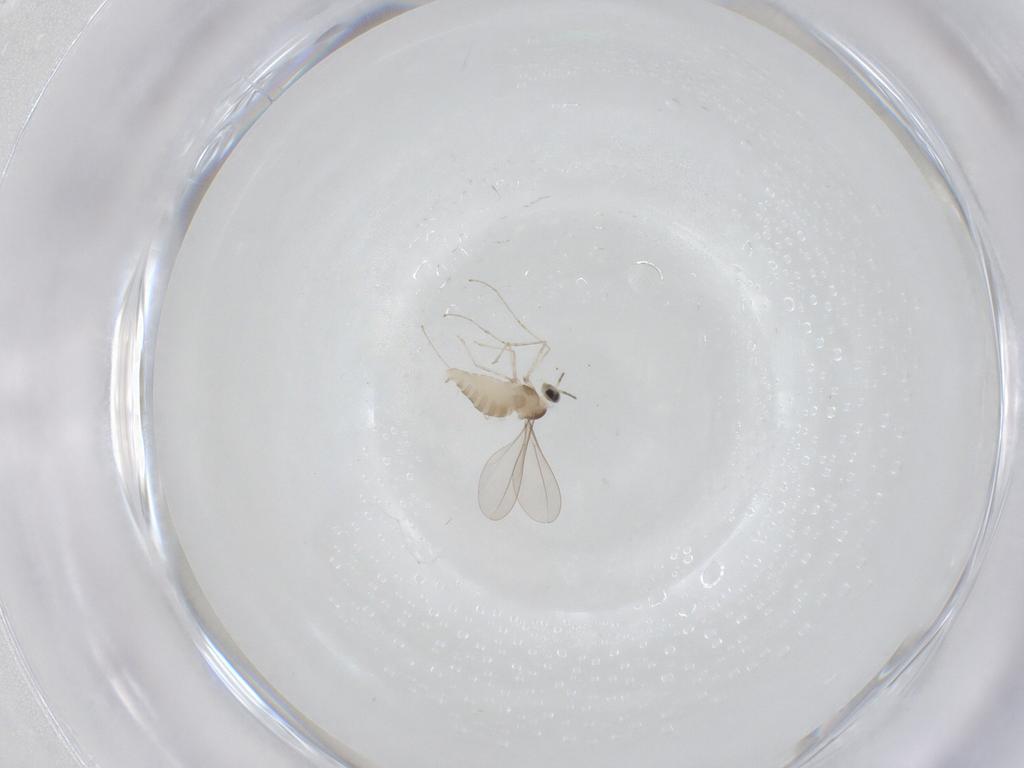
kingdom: Animalia
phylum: Arthropoda
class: Insecta
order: Diptera
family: Cecidomyiidae
